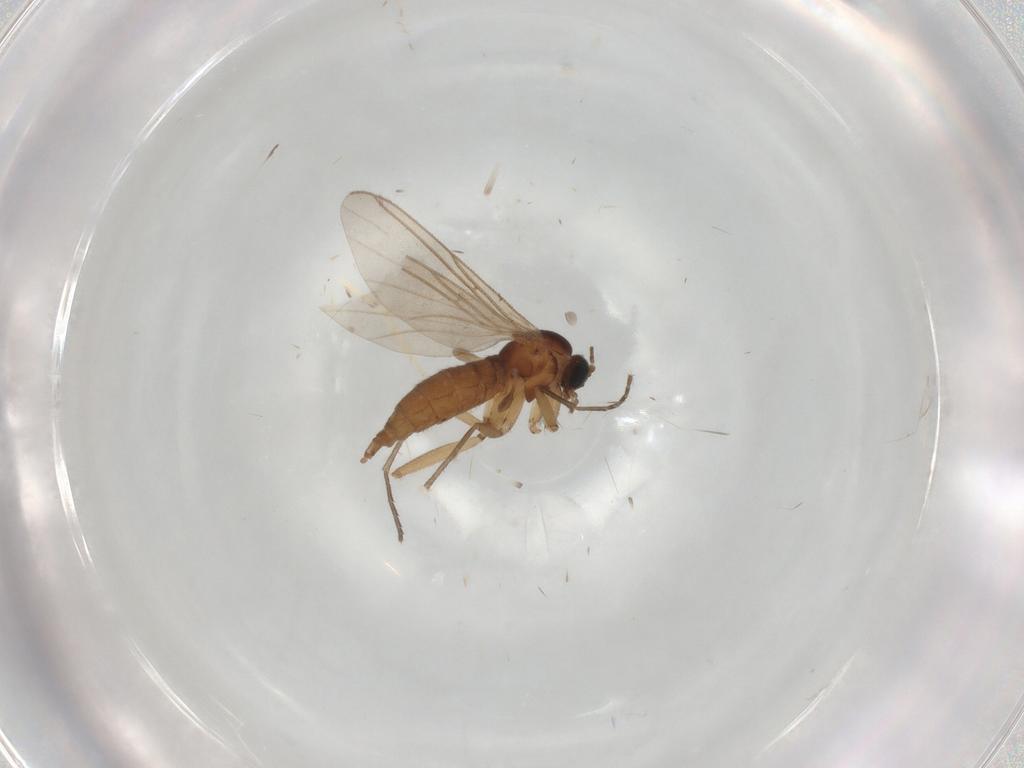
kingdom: Animalia
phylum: Arthropoda
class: Insecta
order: Diptera
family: Sciaridae
